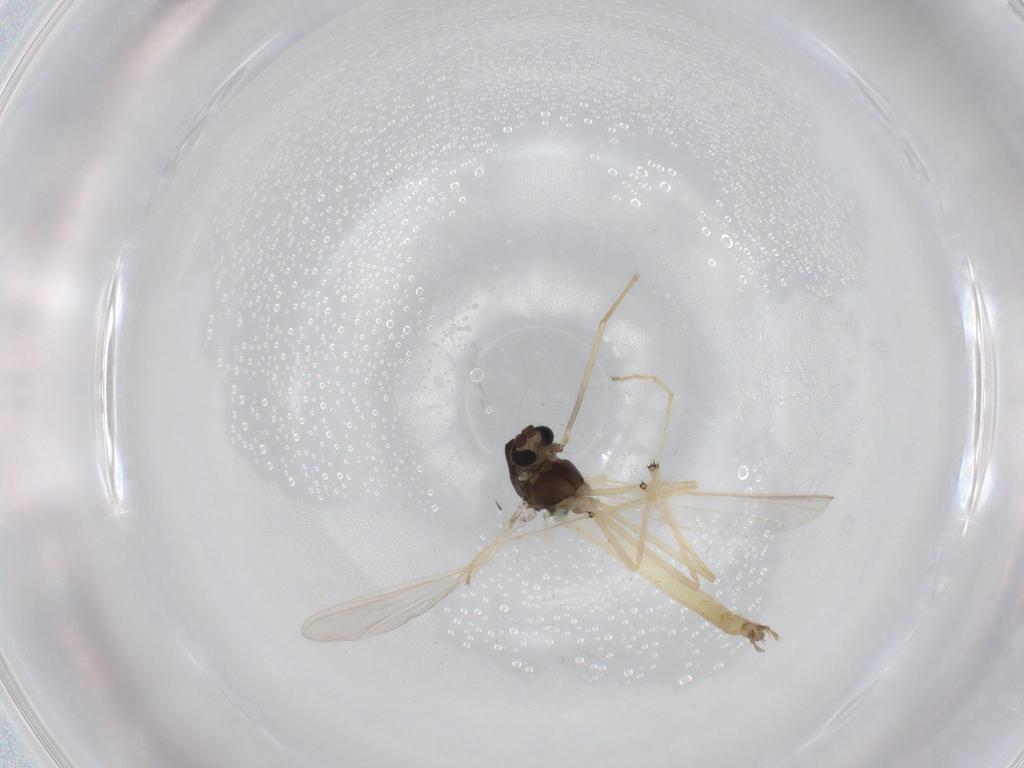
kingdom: Animalia
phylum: Arthropoda
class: Insecta
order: Diptera
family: Chironomidae
